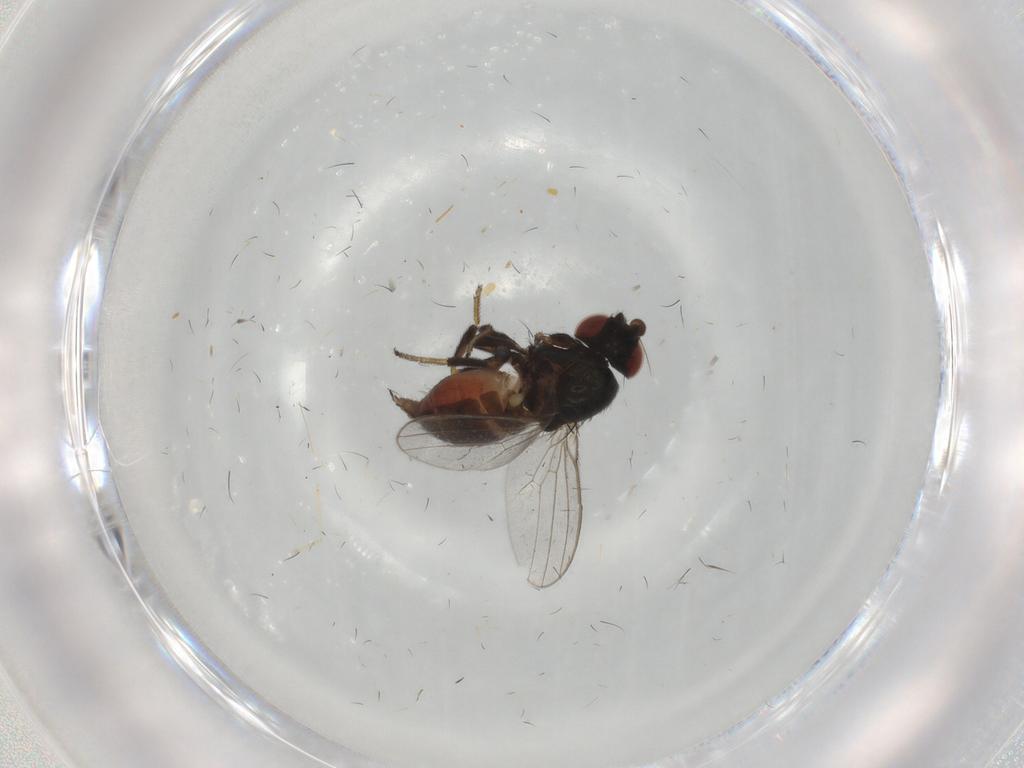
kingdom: Animalia
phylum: Arthropoda
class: Insecta
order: Diptera
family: Milichiidae
